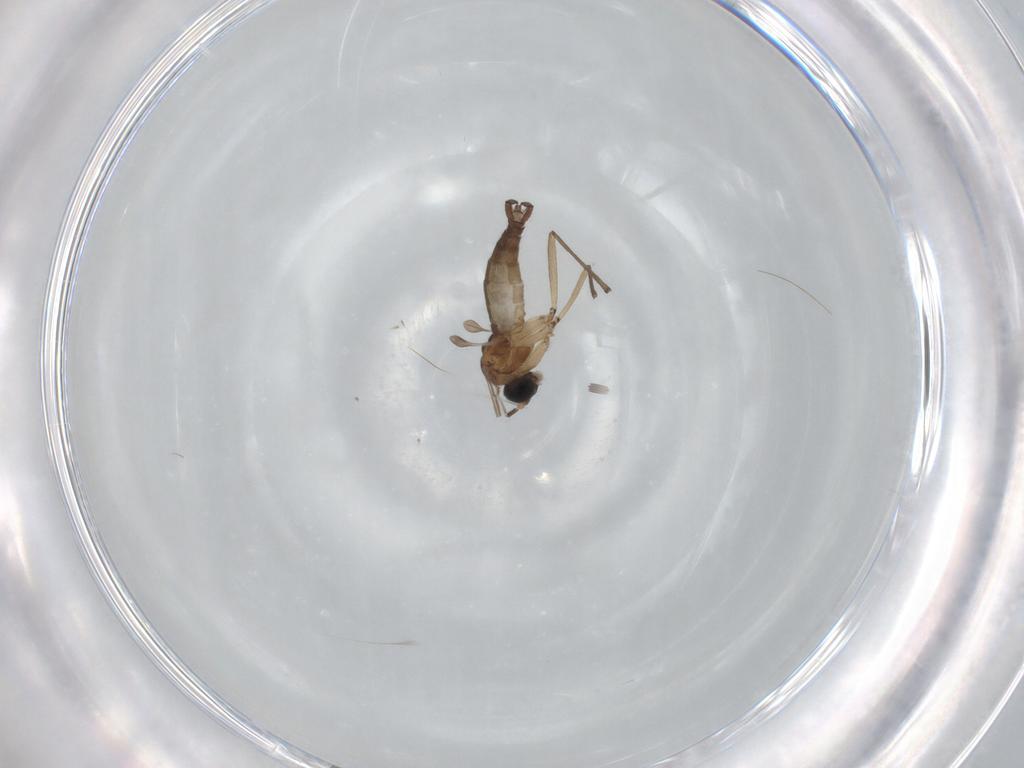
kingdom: Animalia
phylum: Arthropoda
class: Insecta
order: Diptera
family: Sciaridae
